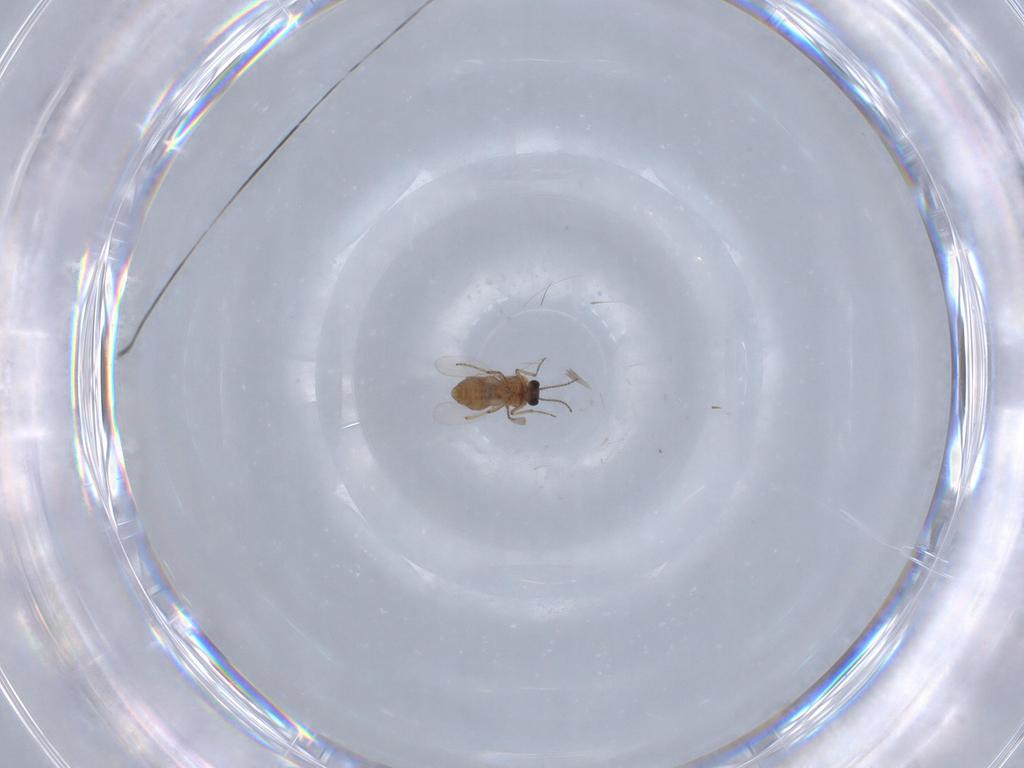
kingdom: Animalia
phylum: Arthropoda
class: Insecta
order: Diptera
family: Ceratopogonidae
